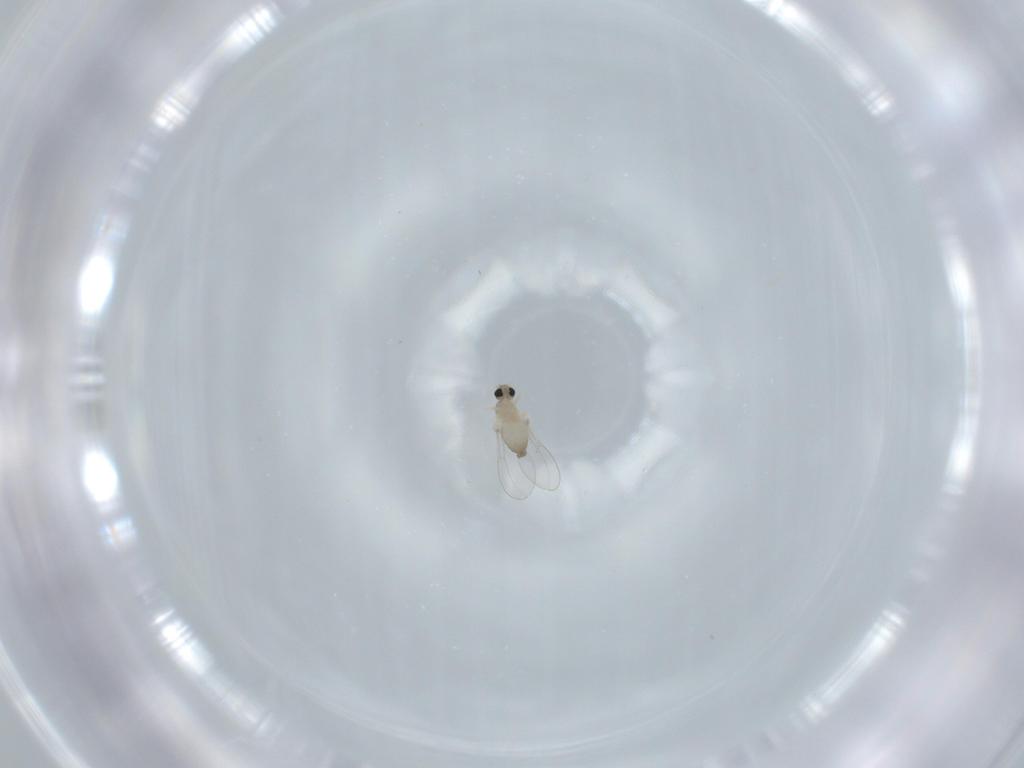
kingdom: Animalia
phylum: Arthropoda
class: Insecta
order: Diptera
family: Cecidomyiidae
